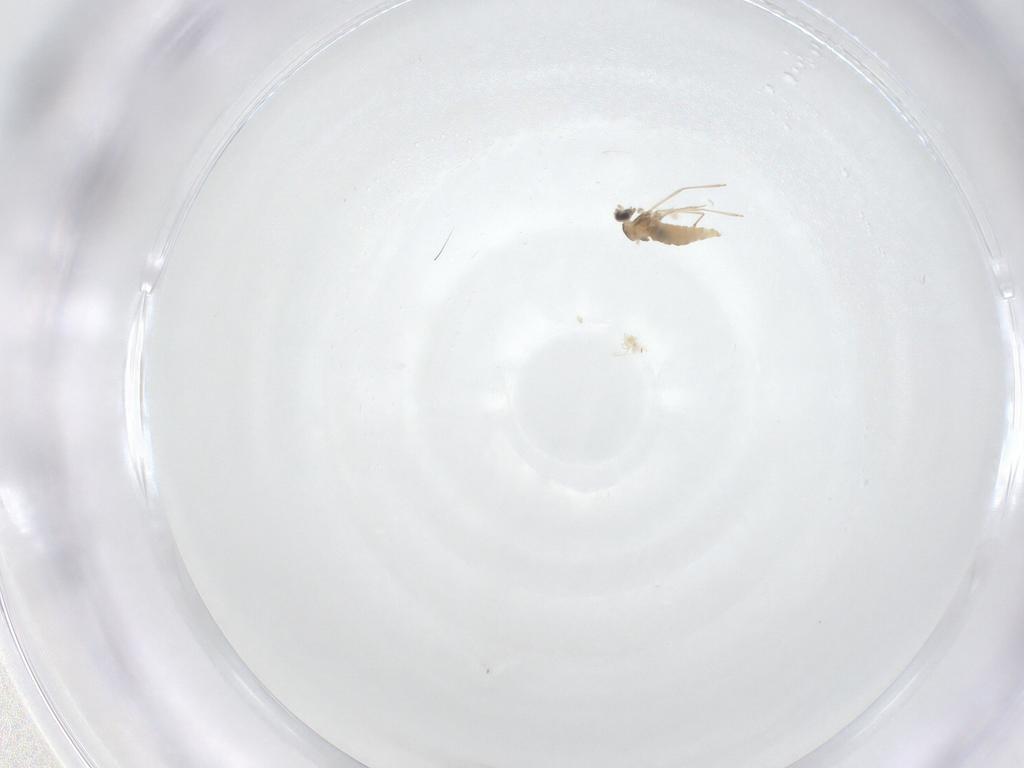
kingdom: Animalia
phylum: Arthropoda
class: Insecta
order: Diptera
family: Cecidomyiidae
